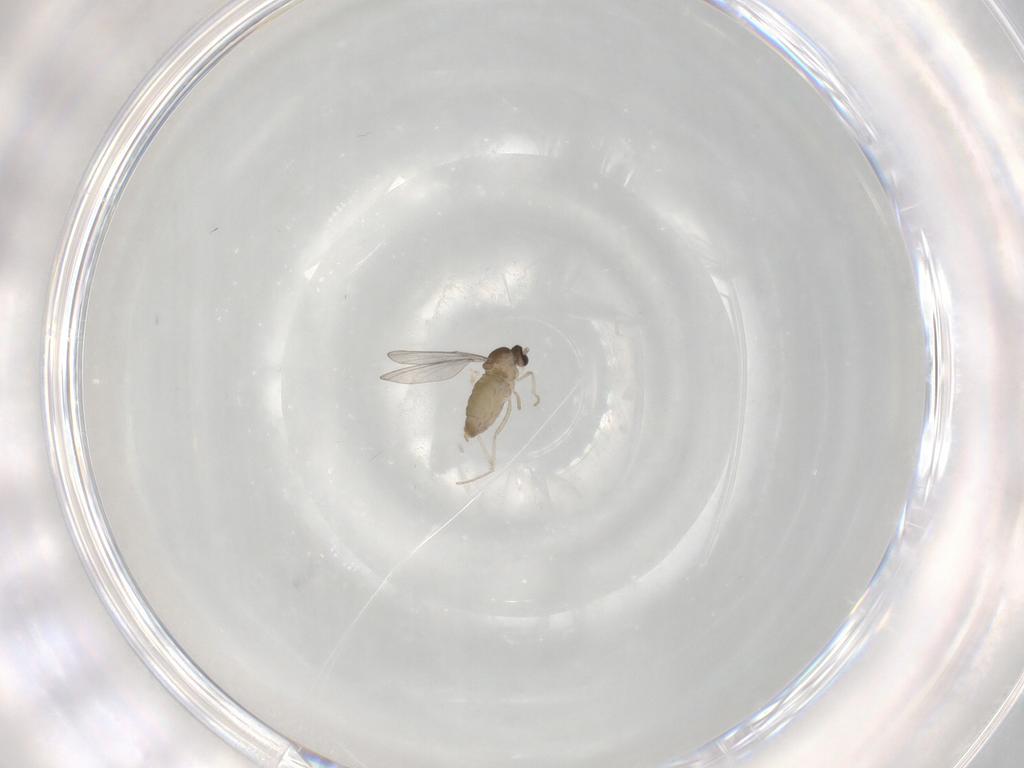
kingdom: Animalia
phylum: Arthropoda
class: Insecta
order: Diptera
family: Cecidomyiidae
